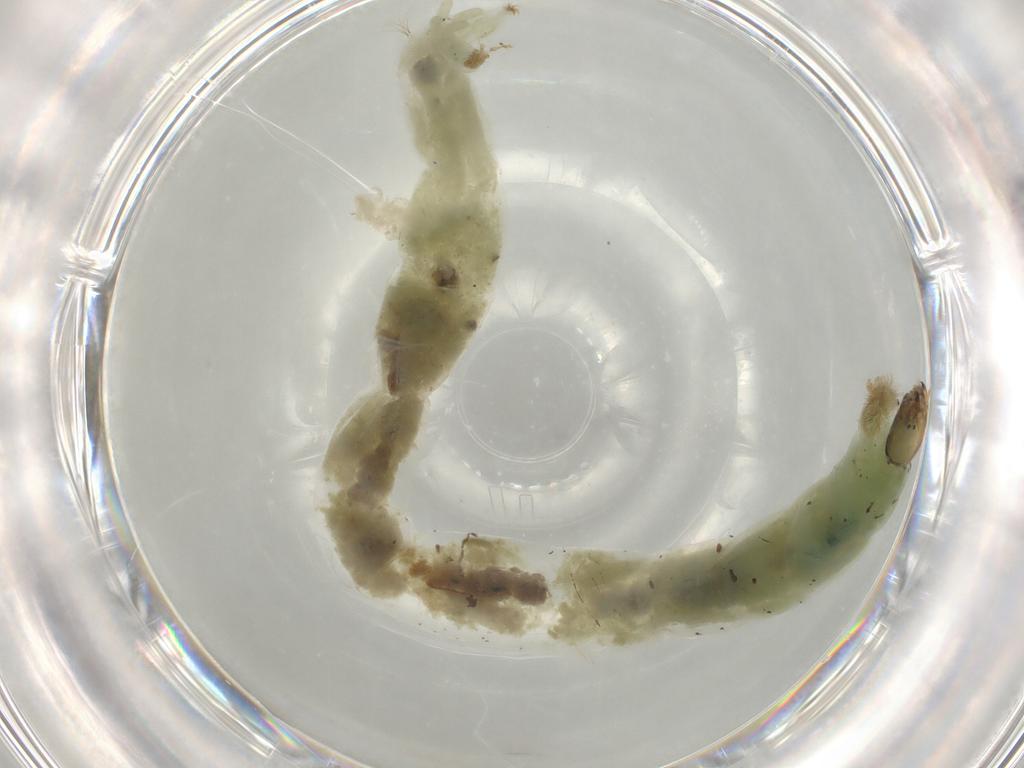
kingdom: Animalia
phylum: Arthropoda
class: Insecta
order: Diptera
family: Chironomidae
